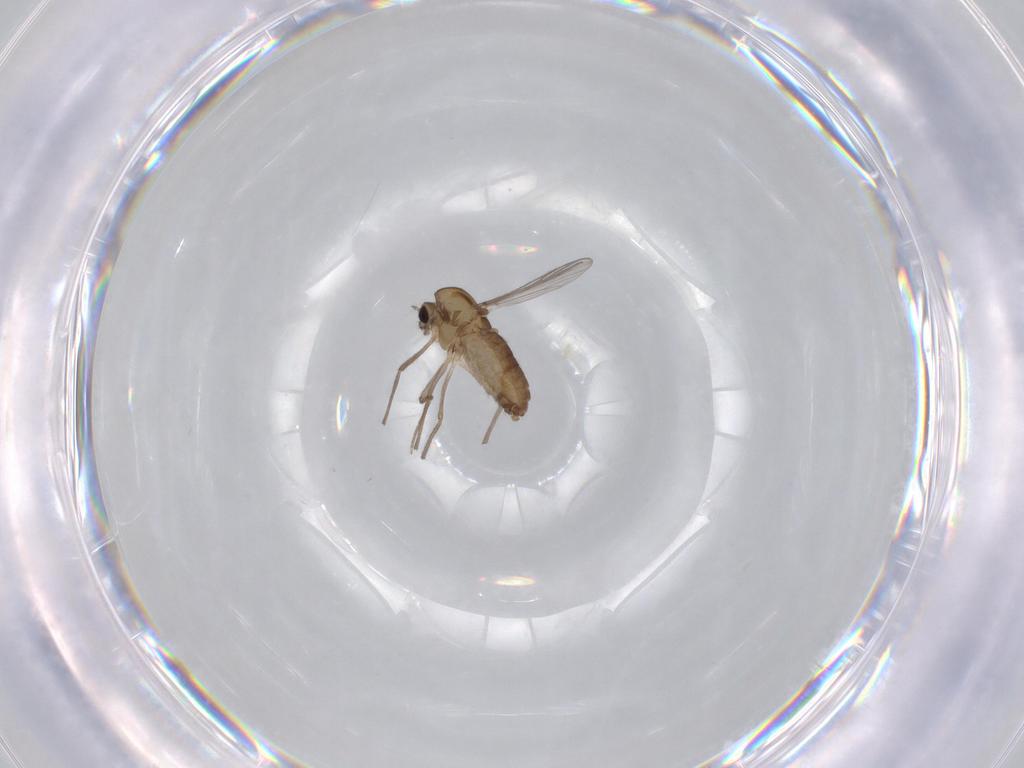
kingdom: Animalia
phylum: Arthropoda
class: Insecta
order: Diptera
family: Chironomidae
